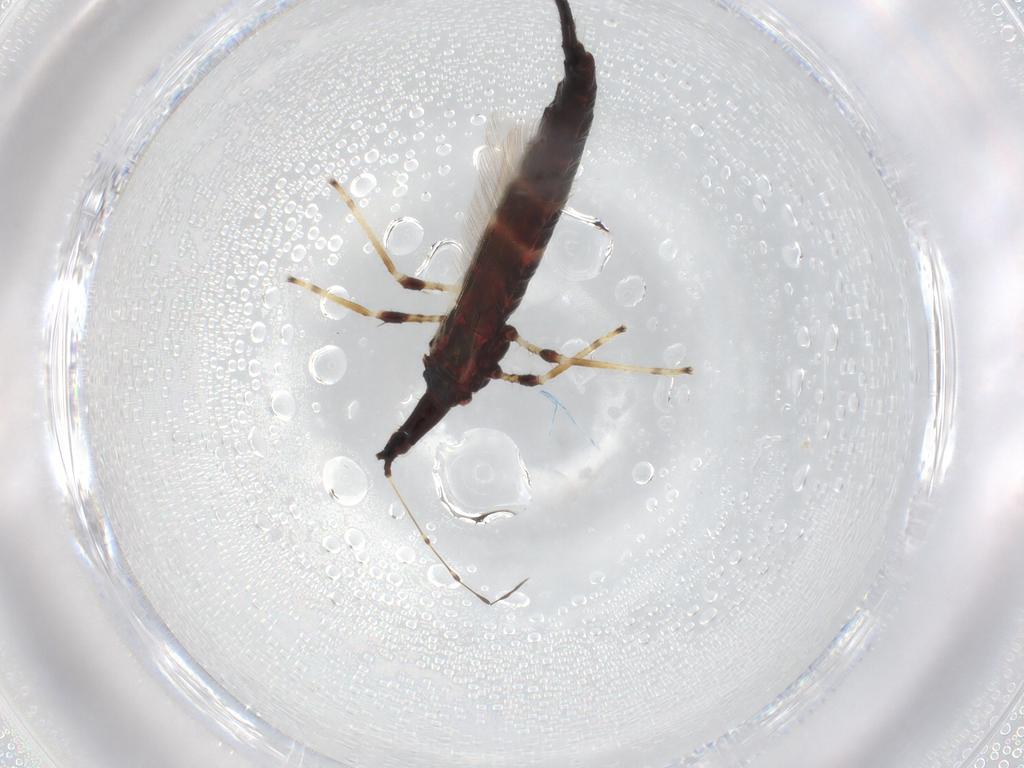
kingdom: Animalia
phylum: Arthropoda
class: Insecta
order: Thysanoptera
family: Phlaeothripidae
